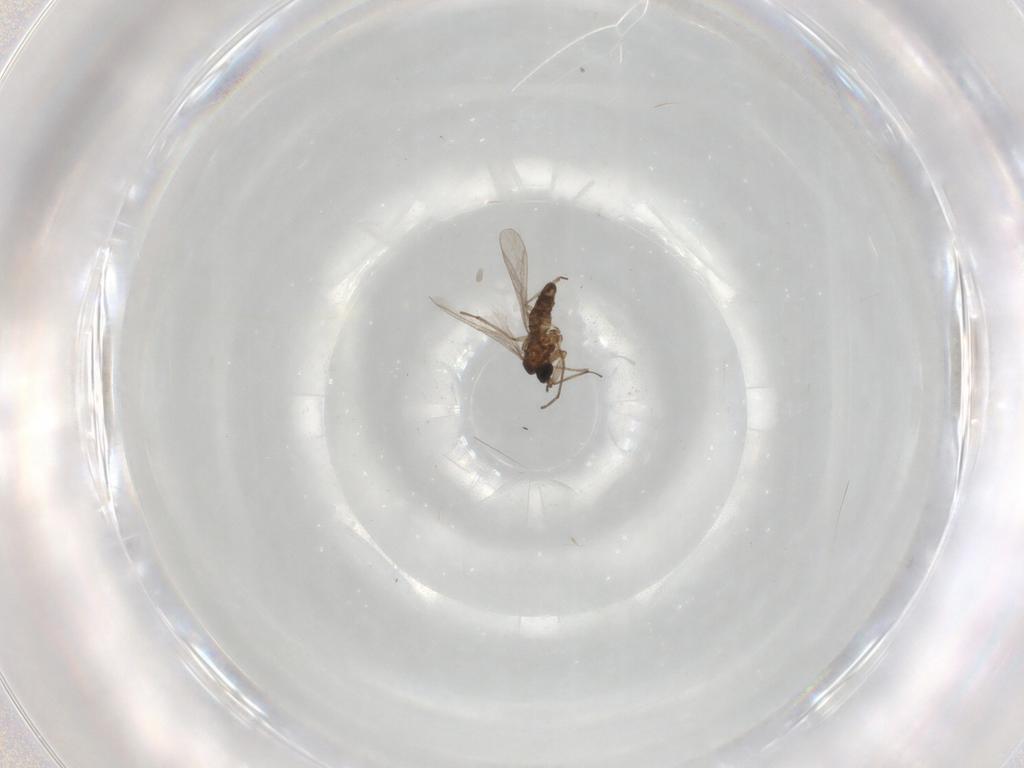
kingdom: Animalia
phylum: Arthropoda
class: Insecta
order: Diptera
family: Sciaridae
